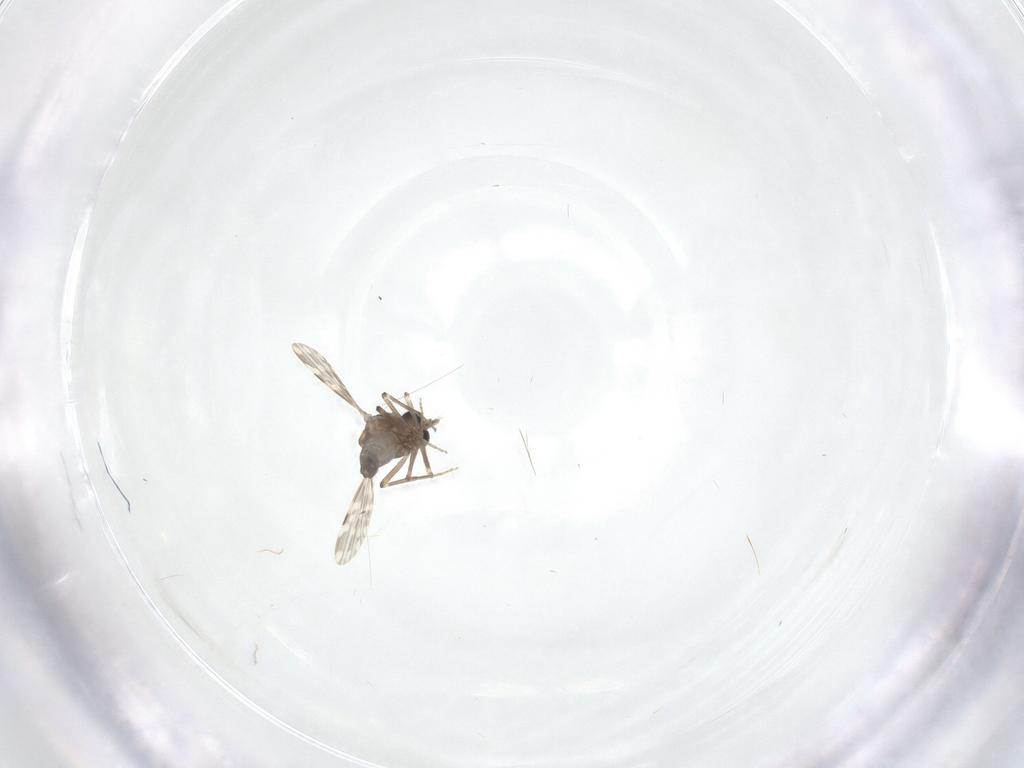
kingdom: Animalia
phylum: Arthropoda
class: Insecta
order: Diptera
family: Ceratopogonidae
